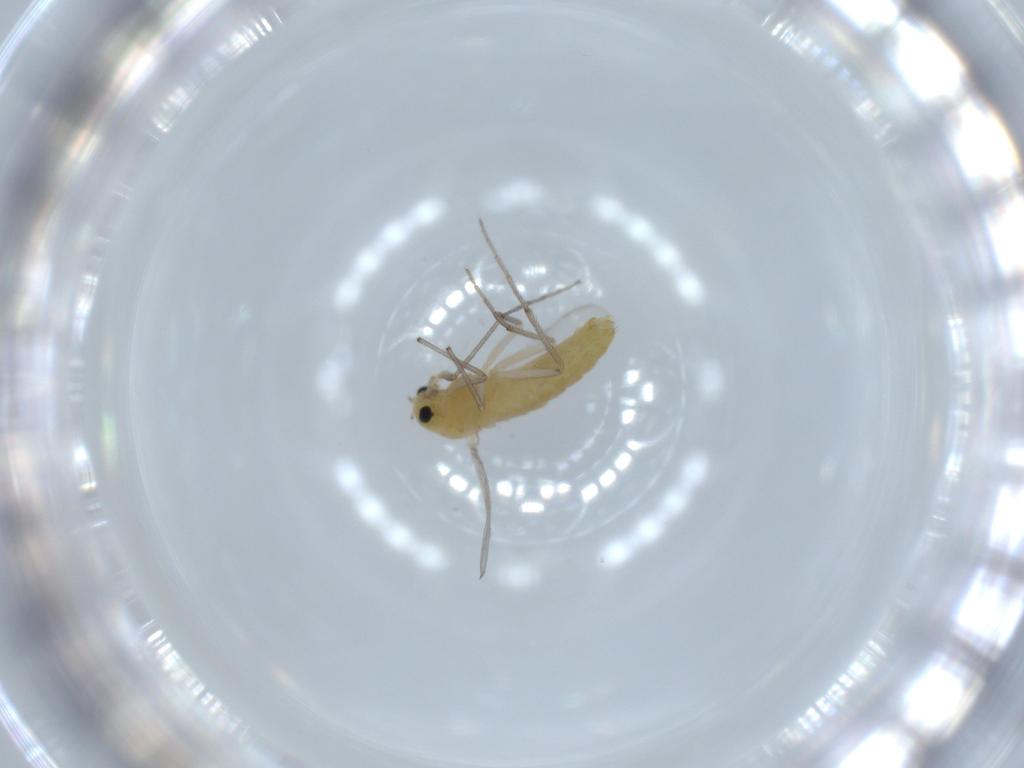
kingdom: Animalia
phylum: Arthropoda
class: Insecta
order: Diptera
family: Chironomidae
